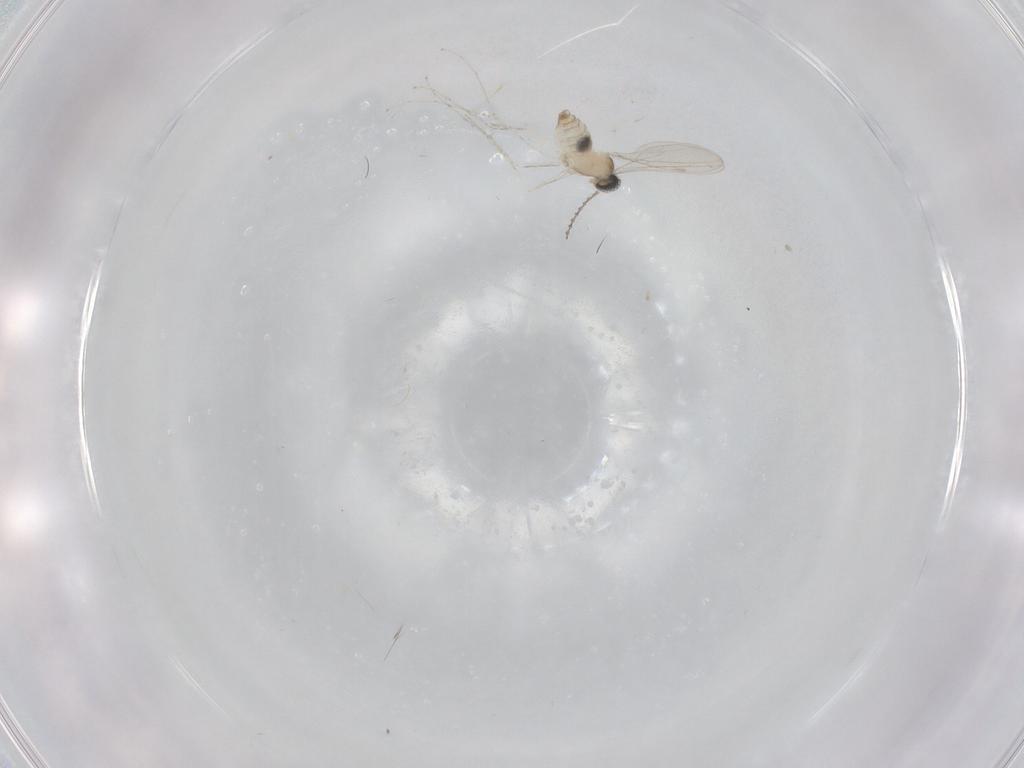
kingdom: Animalia
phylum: Arthropoda
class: Insecta
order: Diptera
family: Cecidomyiidae
